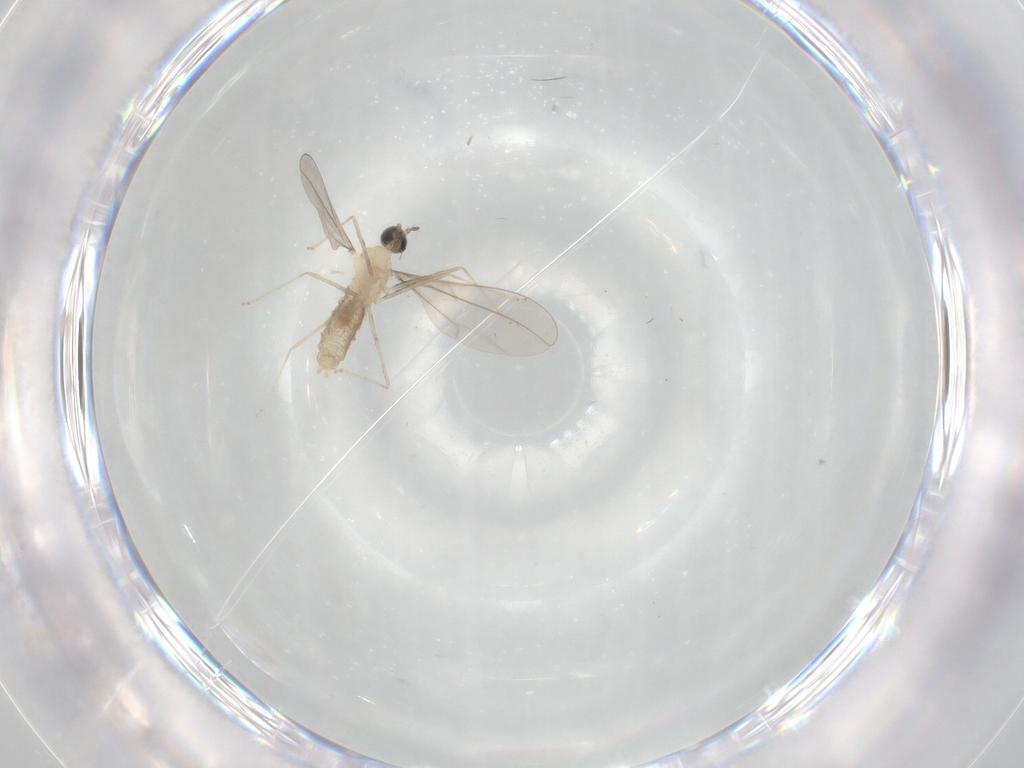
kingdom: Animalia
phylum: Arthropoda
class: Insecta
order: Diptera
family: Cecidomyiidae
